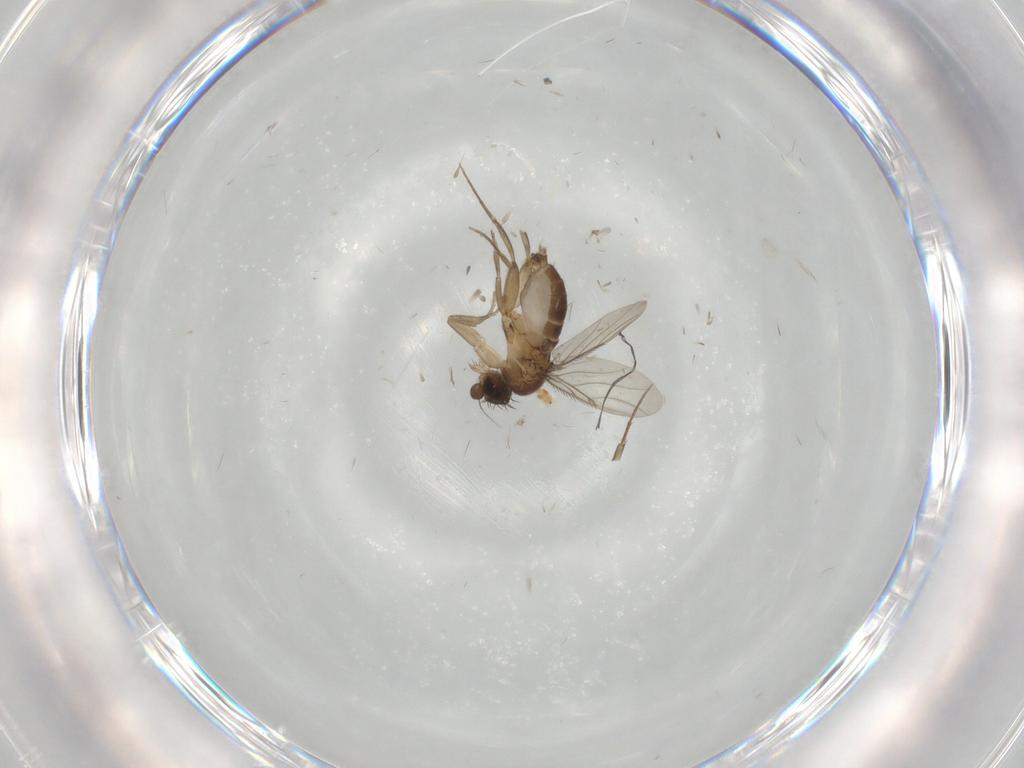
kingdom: Animalia
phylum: Arthropoda
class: Insecta
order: Diptera
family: Phoridae
